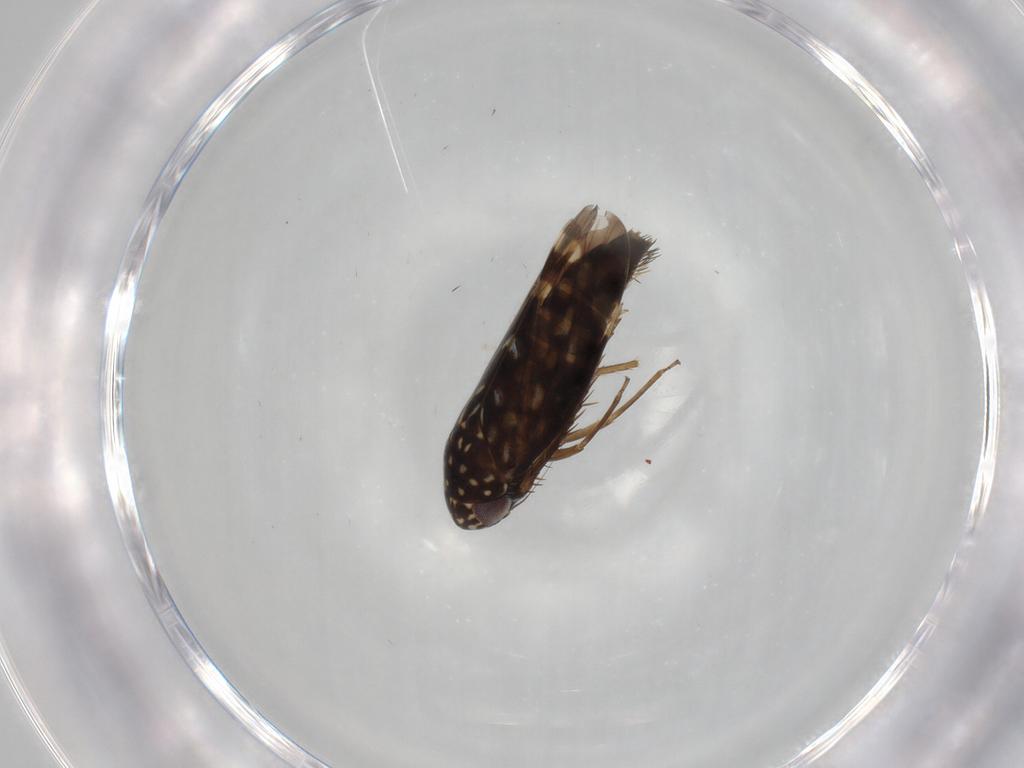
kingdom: Animalia
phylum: Arthropoda
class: Insecta
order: Hemiptera
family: Cicadellidae
